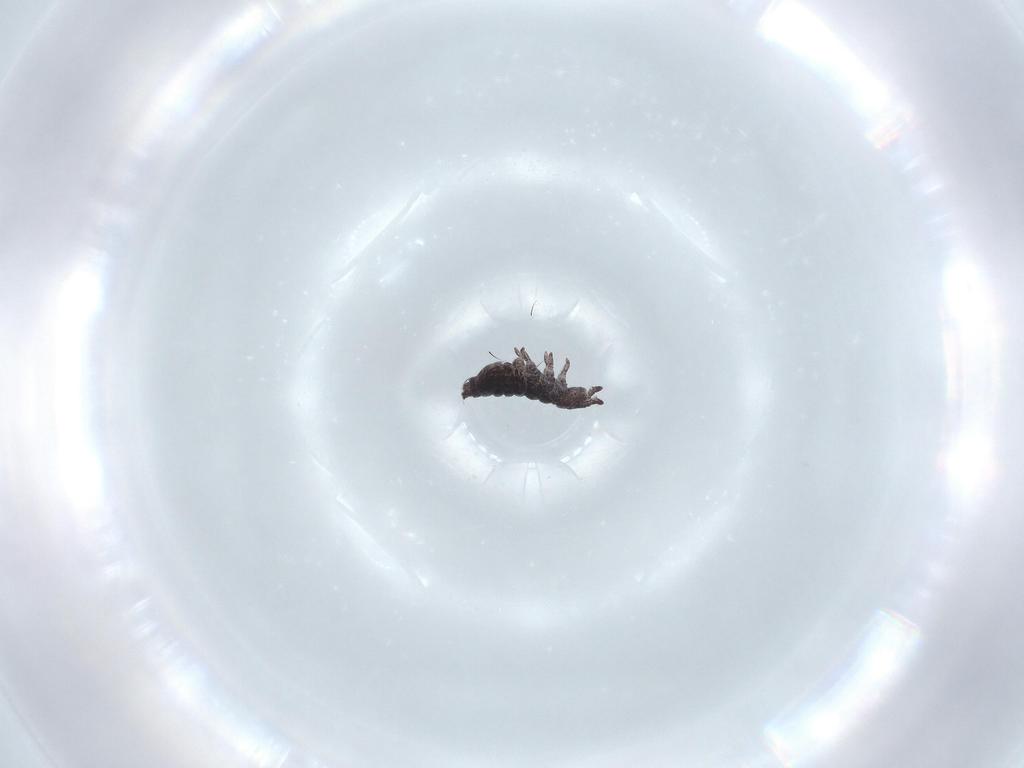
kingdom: Animalia
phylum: Arthropoda
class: Collembola
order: Poduromorpha
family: Hypogastruridae
